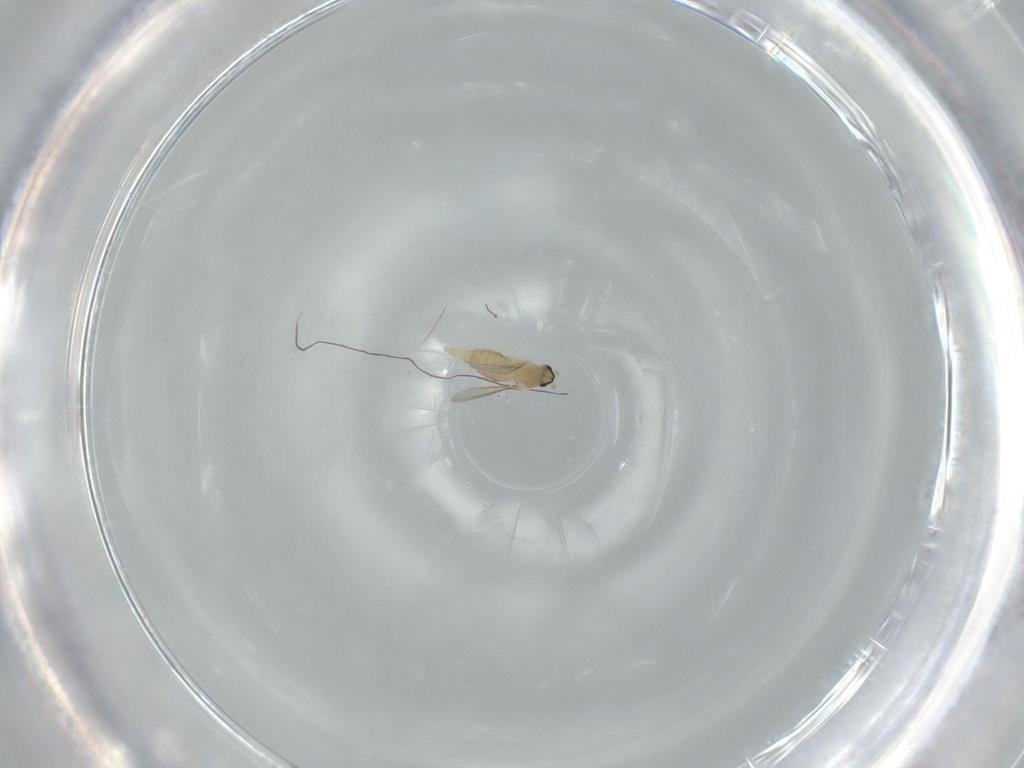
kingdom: Animalia
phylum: Arthropoda
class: Insecta
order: Diptera
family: Cecidomyiidae
